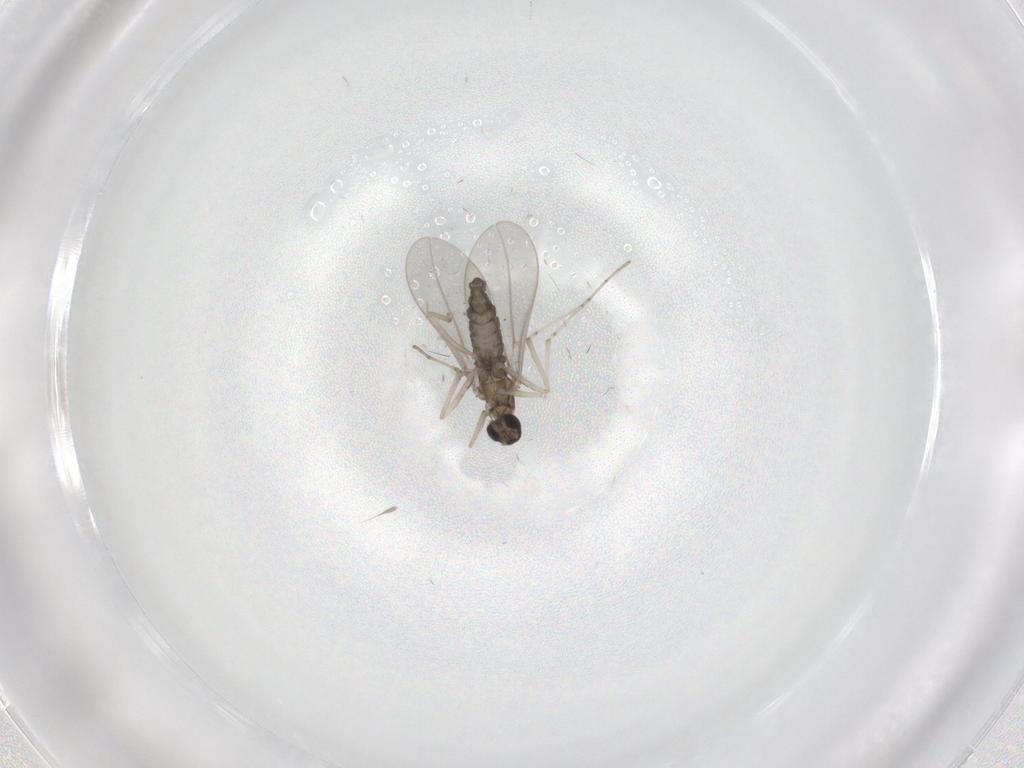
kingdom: Animalia
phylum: Arthropoda
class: Insecta
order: Diptera
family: Cecidomyiidae
